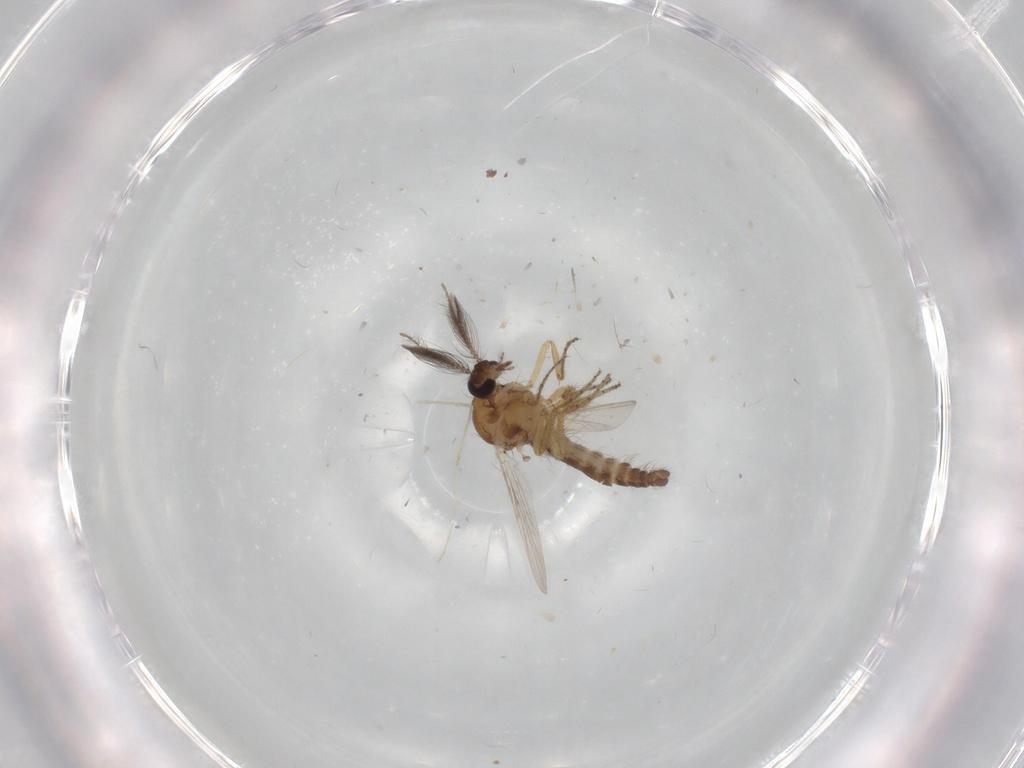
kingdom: Animalia
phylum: Arthropoda
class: Insecta
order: Diptera
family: Ceratopogonidae
